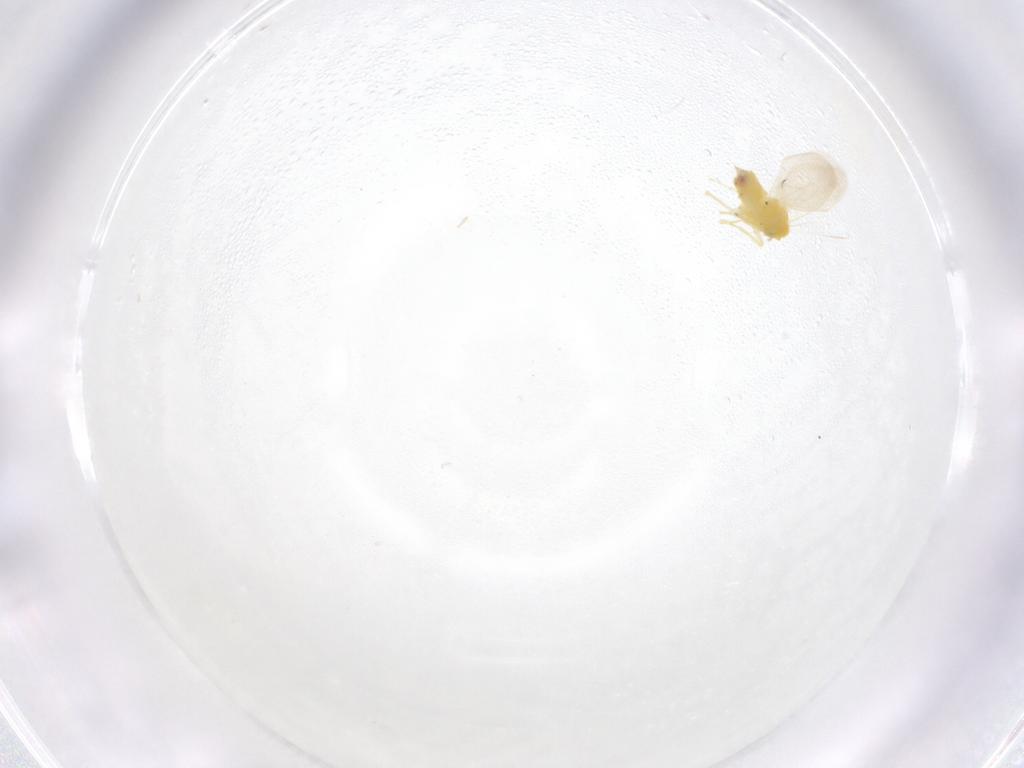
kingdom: Animalia
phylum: Arthropoda
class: Insecta
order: Hemiptera
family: Aleyrodidae
